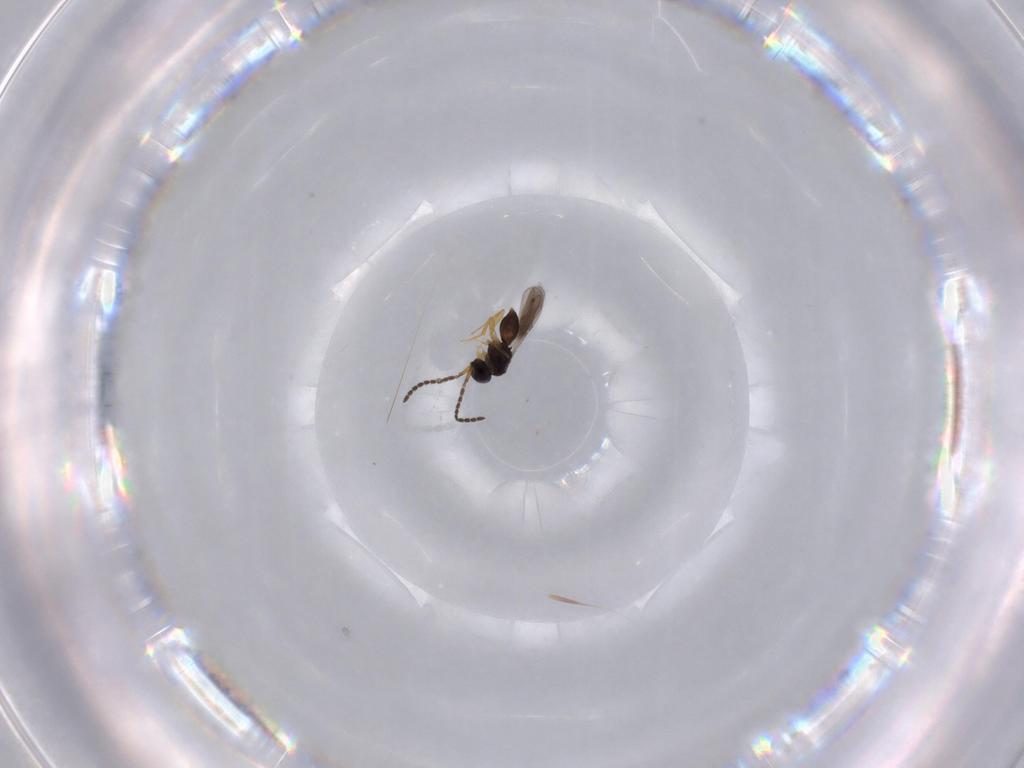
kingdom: Animalia
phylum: Arthropoda
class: Insecta
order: Hymenoptera
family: Ceraphronidae
